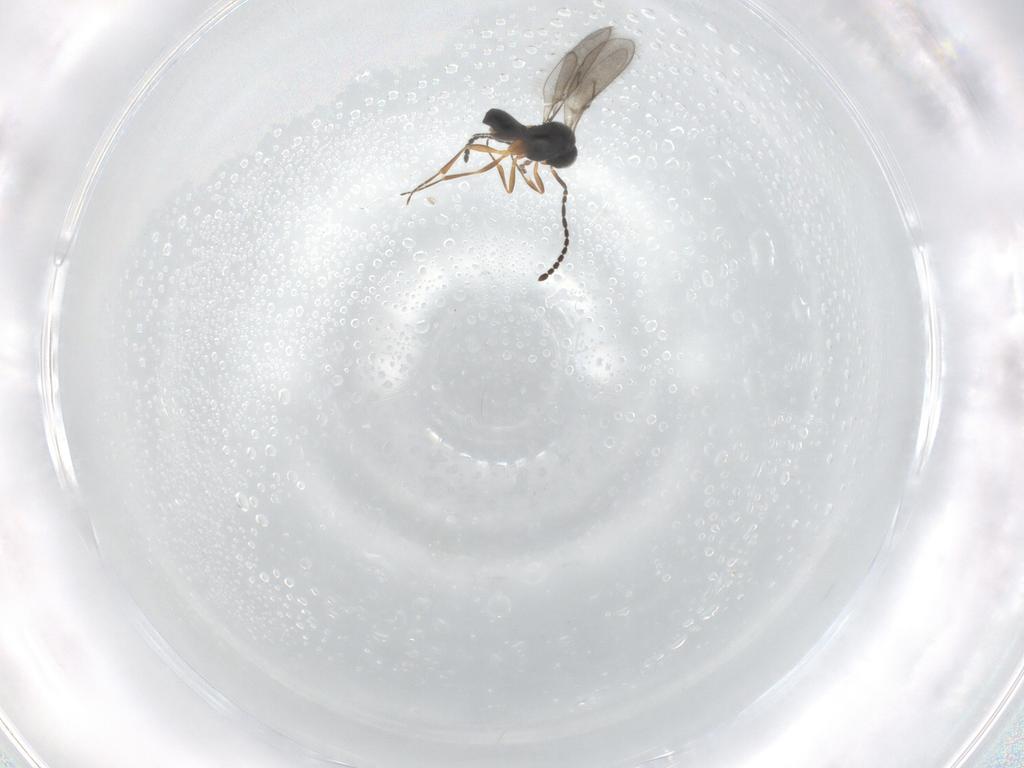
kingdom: Animalia
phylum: Arthropoda
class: Insecta
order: Hymenoptera
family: Scelionidae
